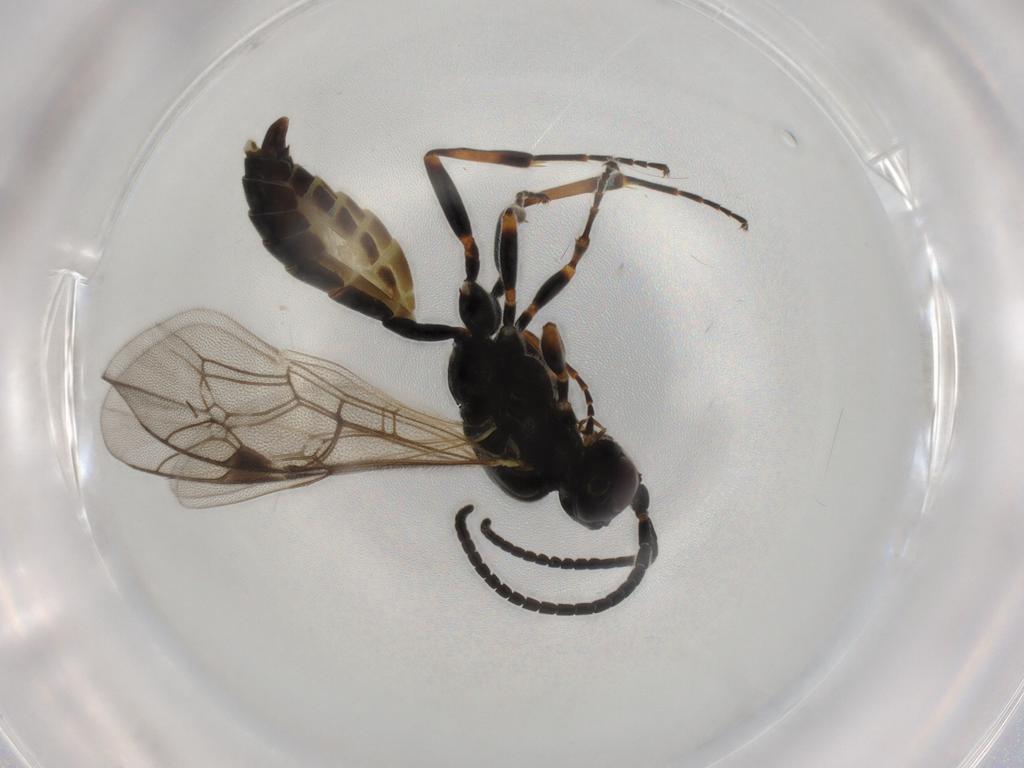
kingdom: Animalia
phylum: Arthropoda
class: Insecta
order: Hymenoptera
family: Ichneumonidae
